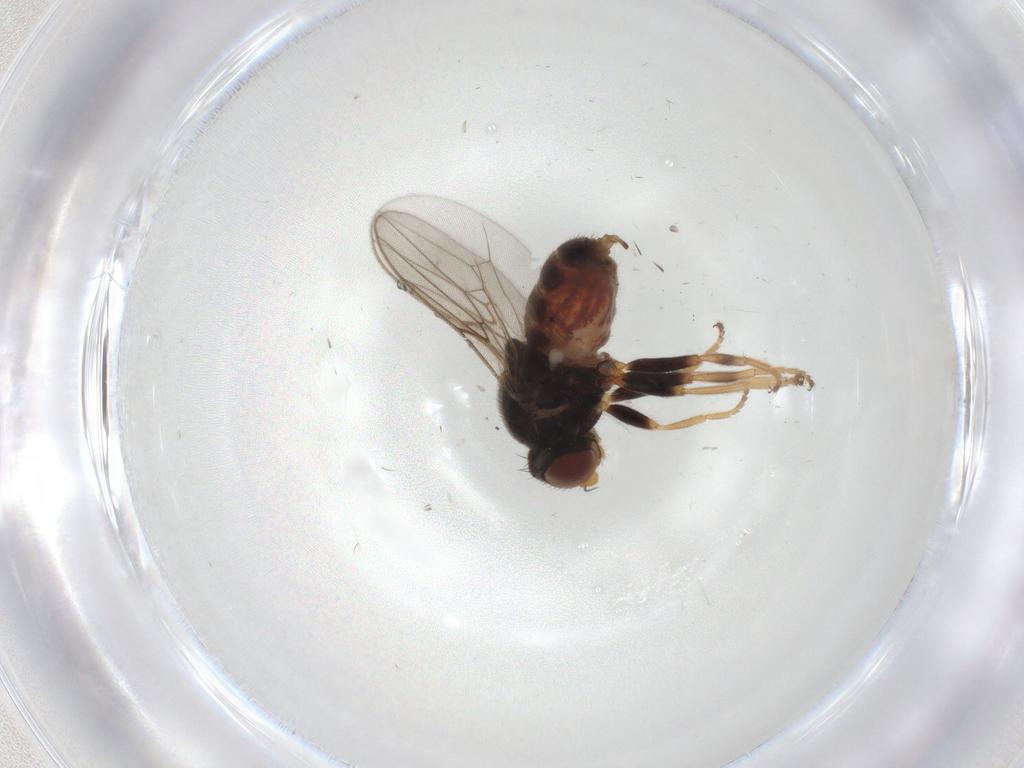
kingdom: Animalia
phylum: Arthropoda
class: Insecta
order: Diptera
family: Chloropidae
